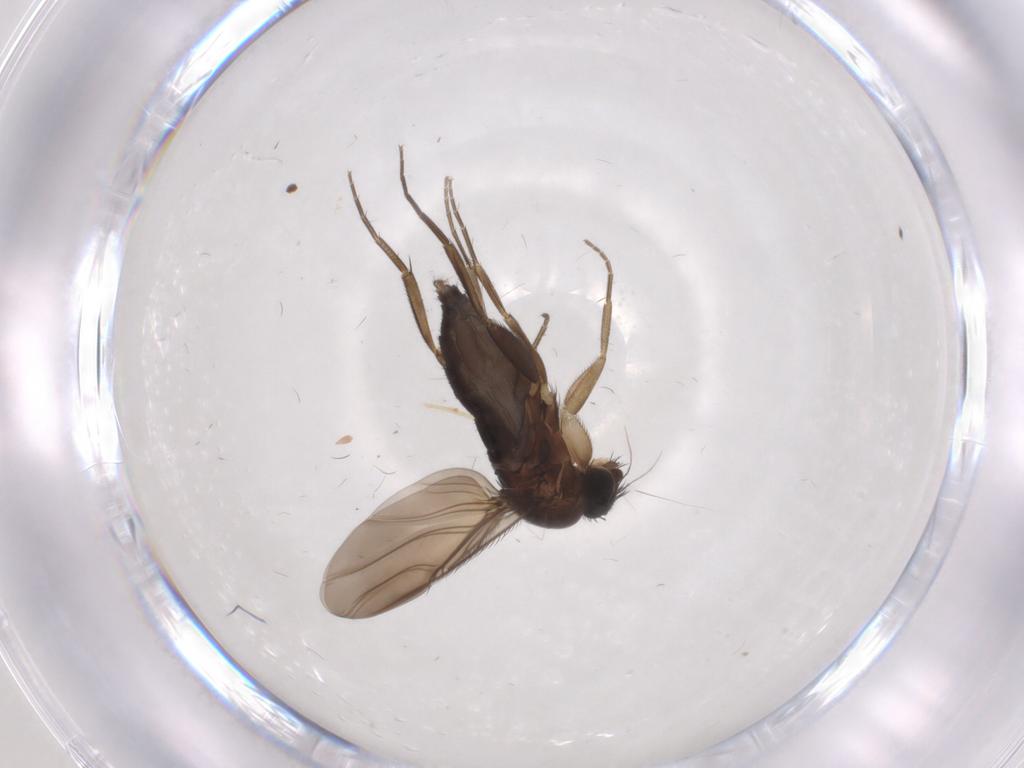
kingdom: Animalia
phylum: Arthropoda
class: Insecta
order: Diptera
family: Phoridae
